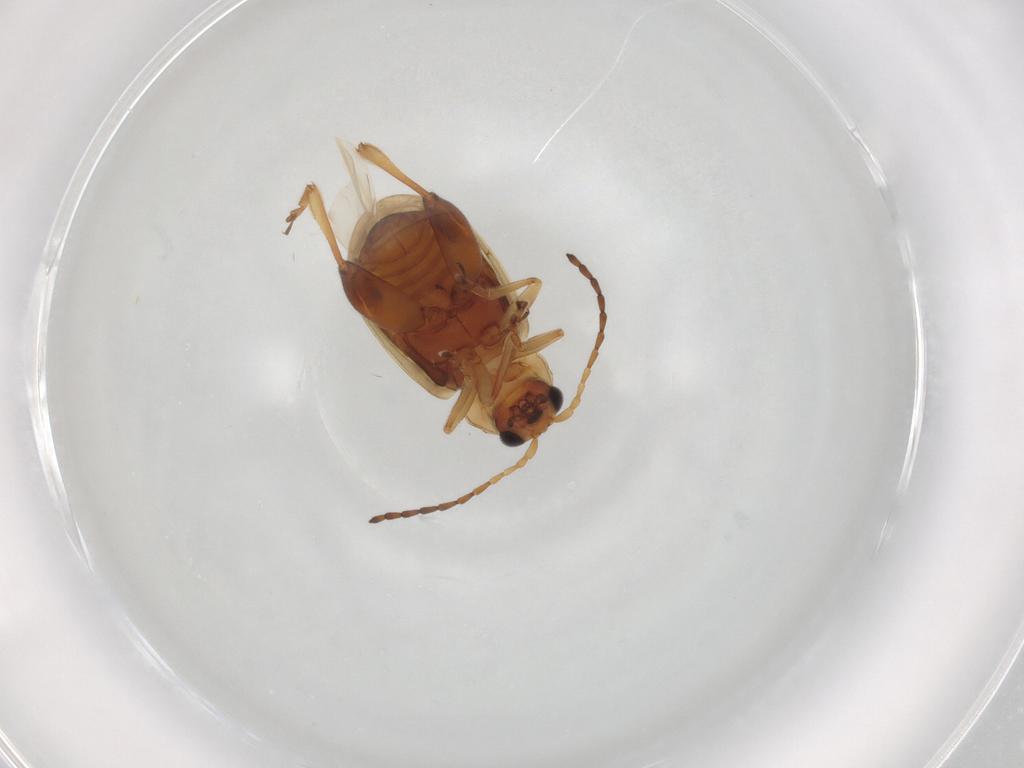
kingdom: Animalia
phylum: Arthropoda
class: Insecta
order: Coleoptera
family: Chrysomelidae
